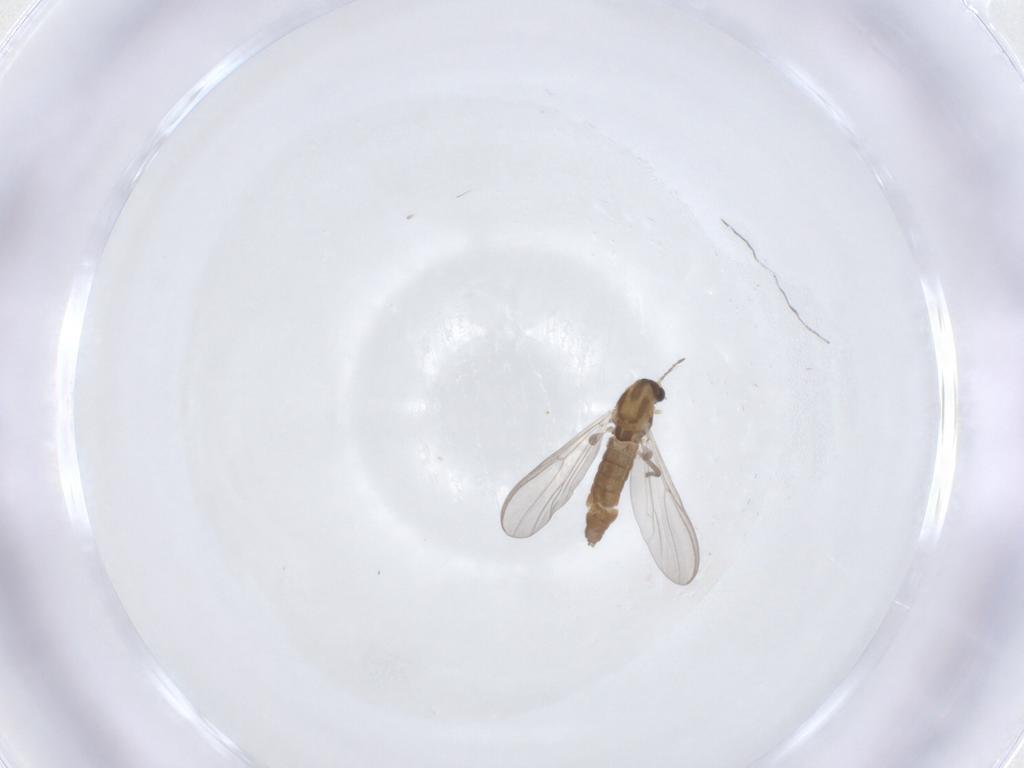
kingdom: Animalia
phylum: Arthropoda
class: Insecta
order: Diptera
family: Chironomidae
